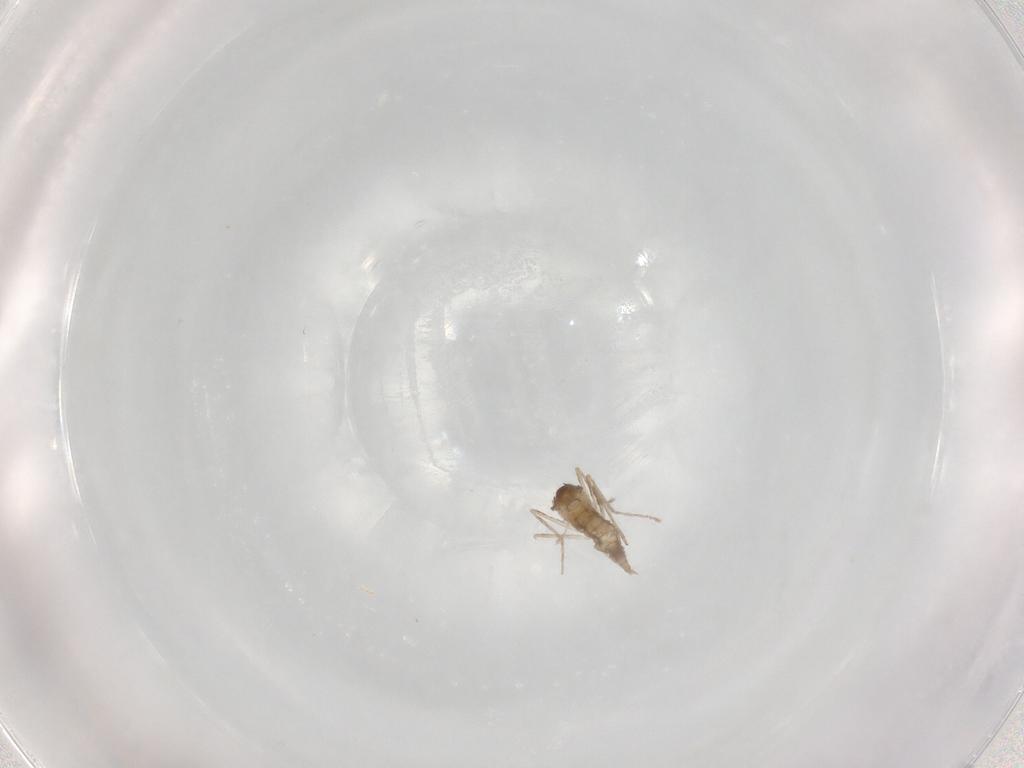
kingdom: Animalia
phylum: Arthropoda
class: Insecta
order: Diptera
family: Cecidomyiidae
